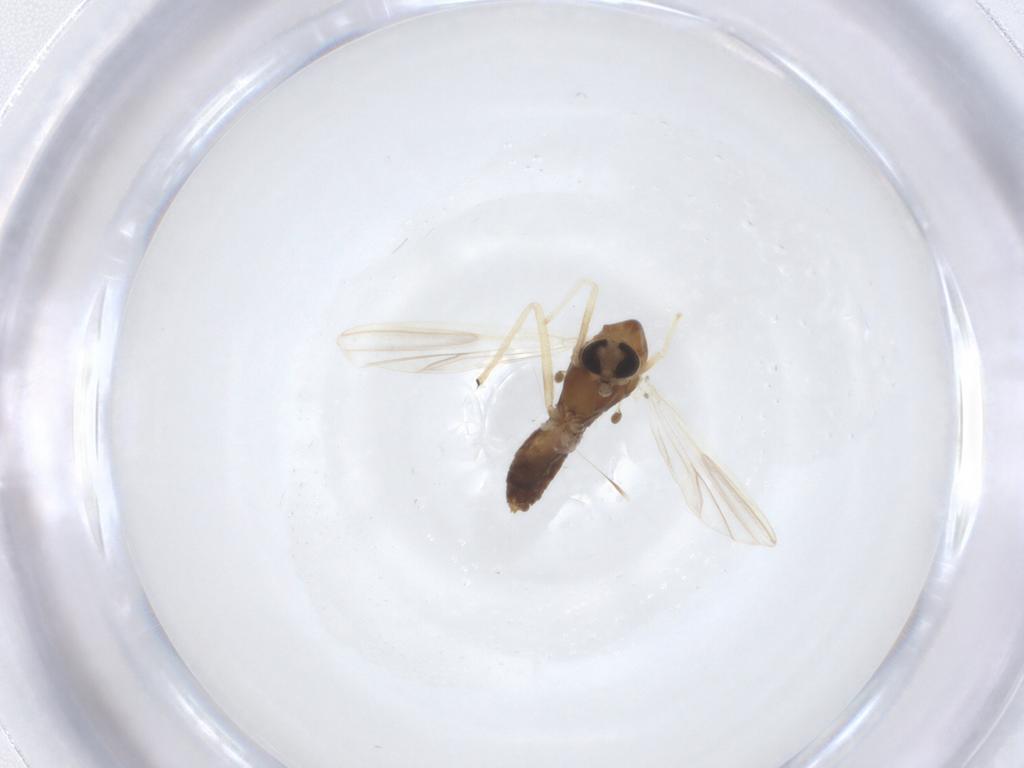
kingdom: Animalia
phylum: Arthropoda
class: Insecta
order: Diptera
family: Chironomidae
